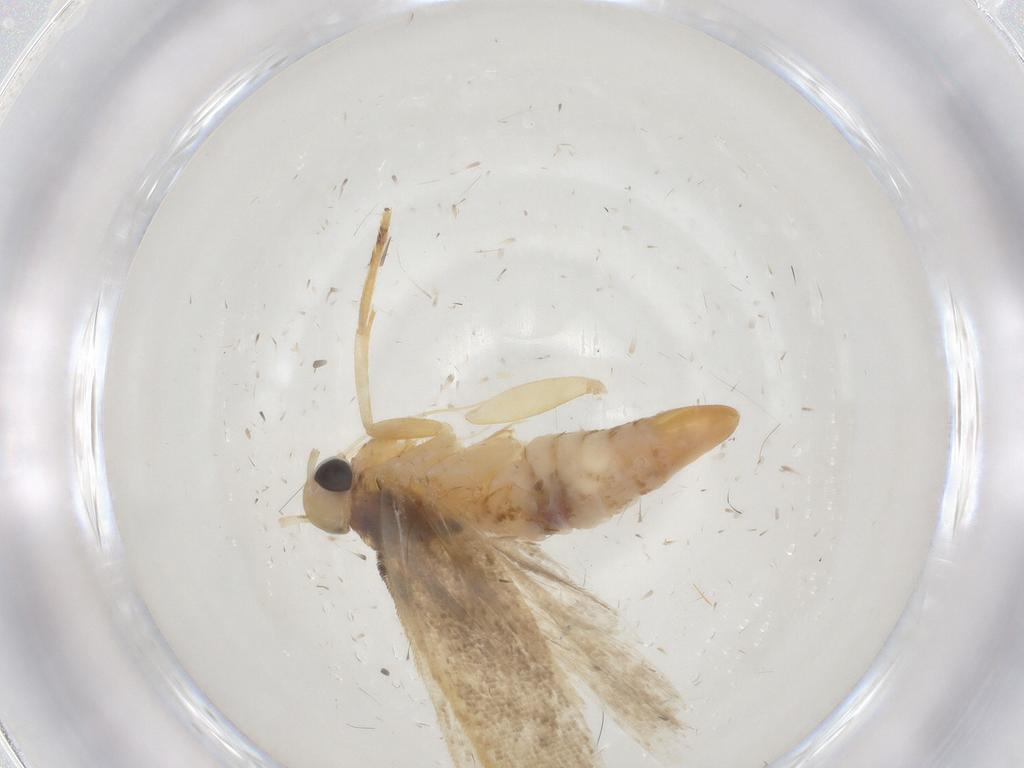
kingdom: Animalia
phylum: Arthropoda
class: Insecta
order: Lepidoptera
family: Gelechiidae
